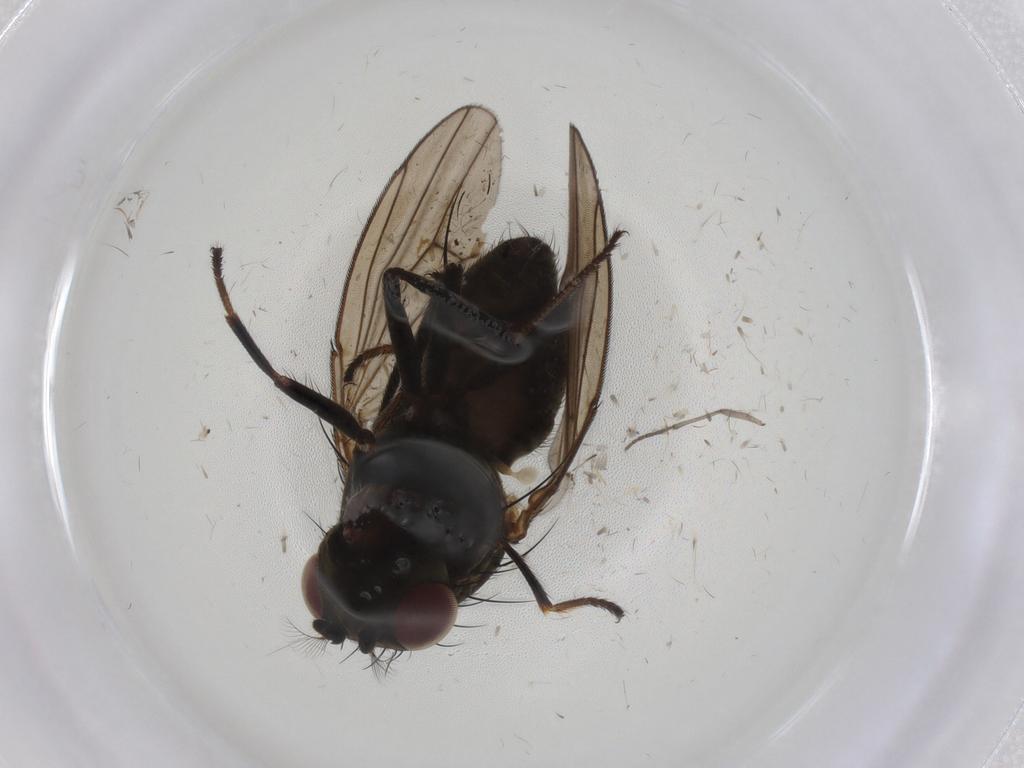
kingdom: Animalia
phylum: Arthropoda
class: Insecta
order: Diptera
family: Ephydridae
